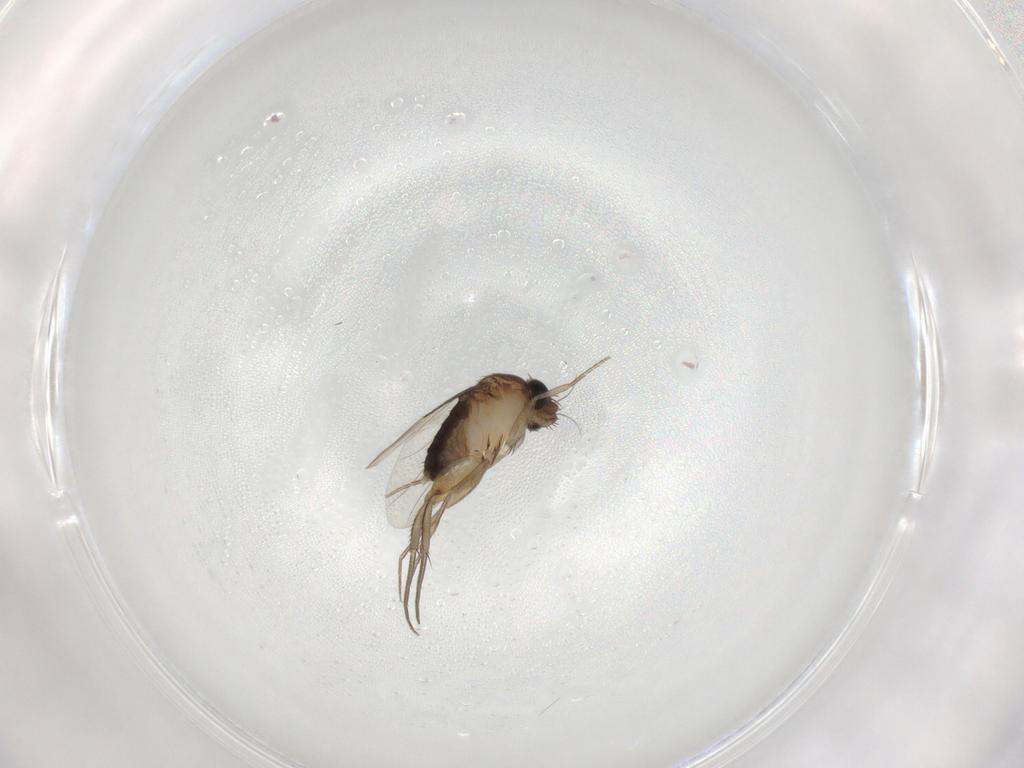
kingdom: Animalia
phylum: Arthropoda
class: Insecta
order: Diptera
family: Phoridae
